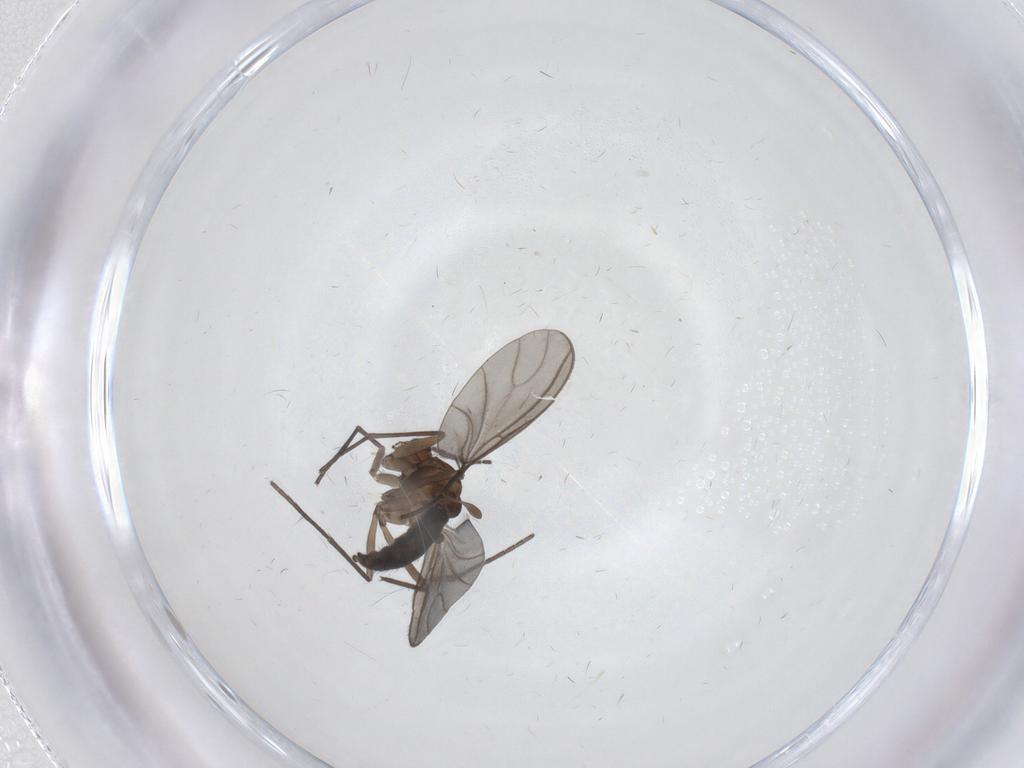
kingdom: Animalia
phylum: Arthropoda
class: Insecta
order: Diptera
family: Sciaridae
